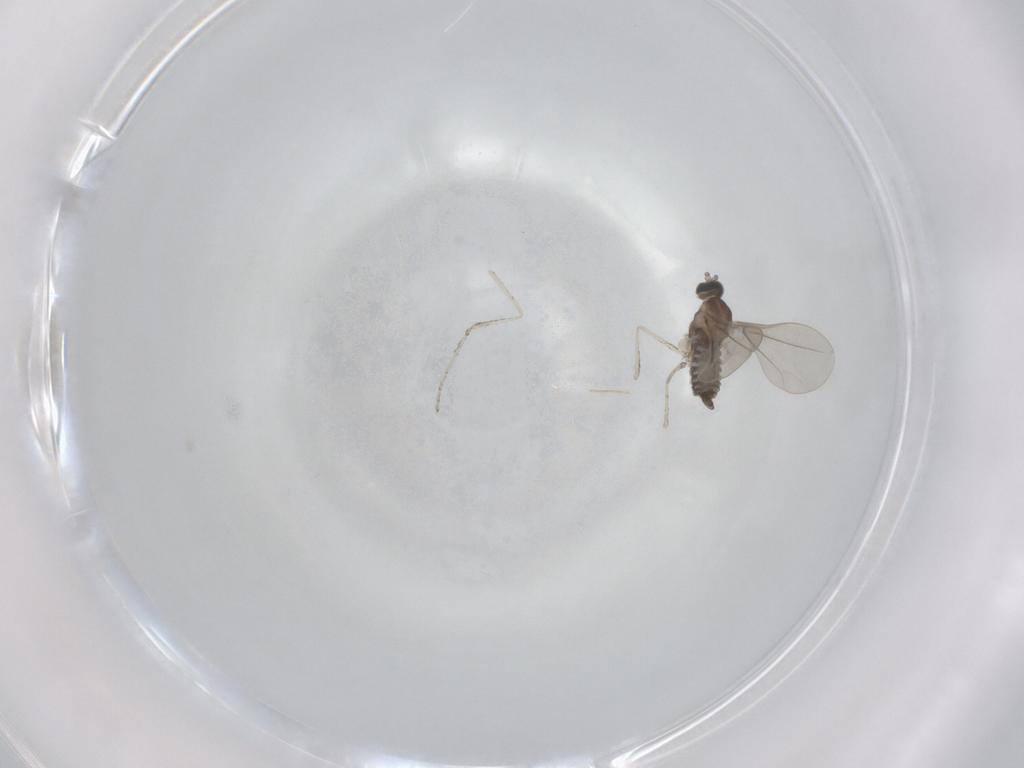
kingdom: Animalia
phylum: Arthropoda
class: Insecta
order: Diptera
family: Cecidomyiidae
